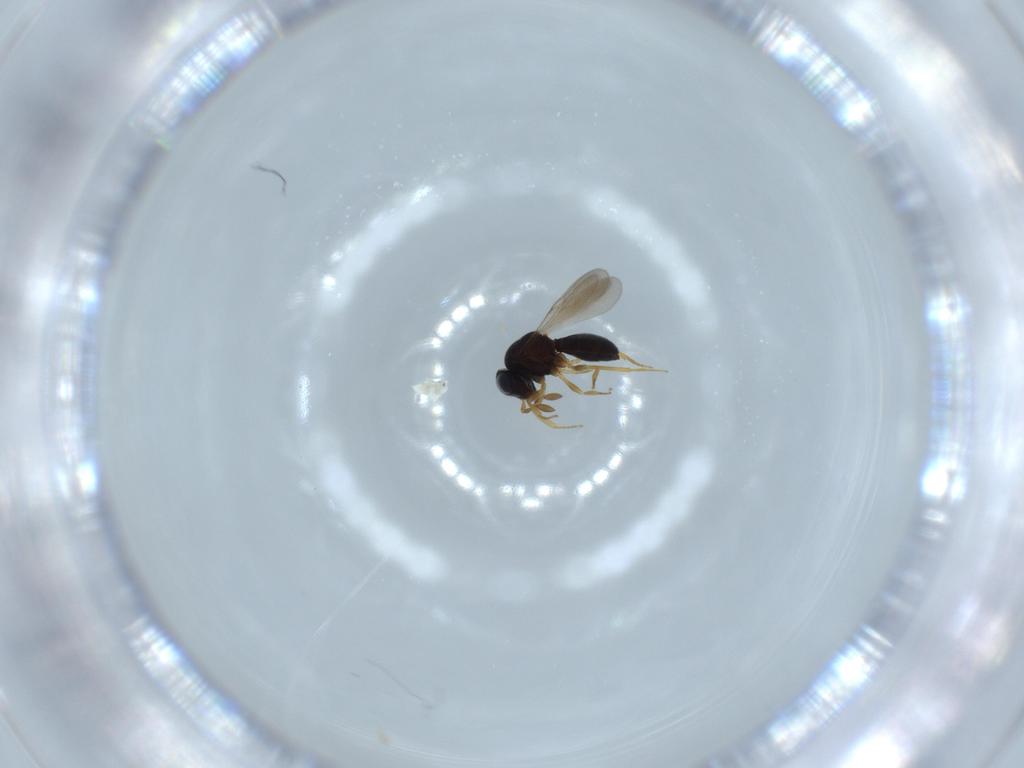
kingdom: Animalia
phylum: Arthropoda
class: Insecta
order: Hymenoptera
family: Scelionidae
